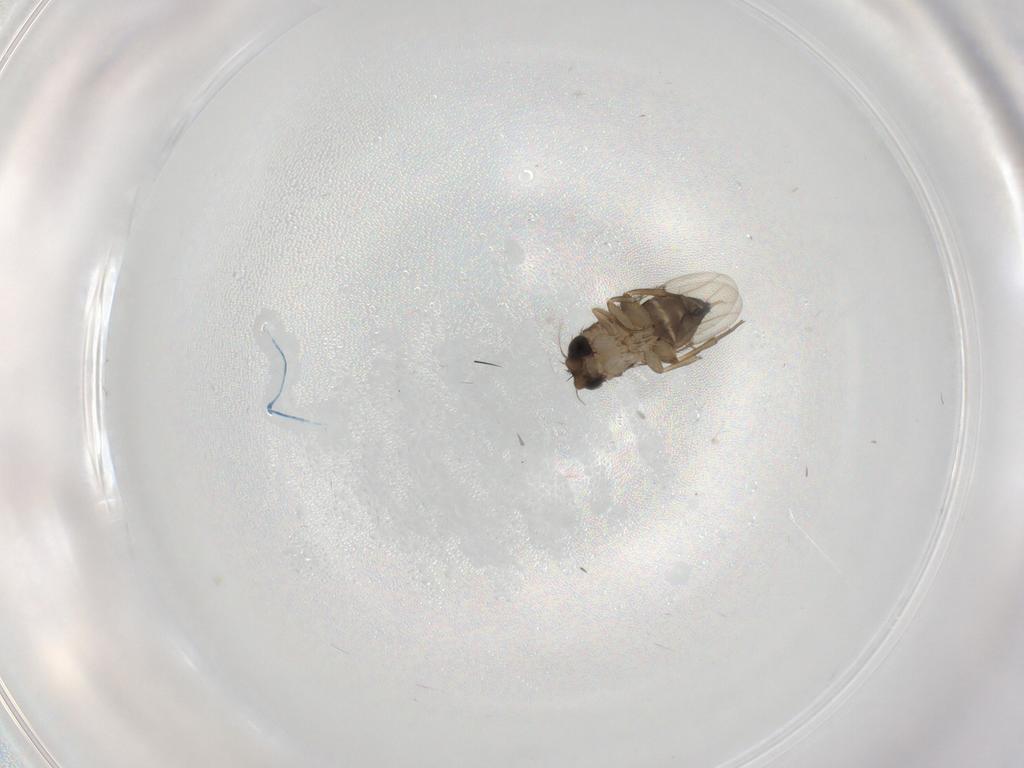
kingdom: Animalia
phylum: Arthropoda
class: Insecta
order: Diptera
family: Phoridae
